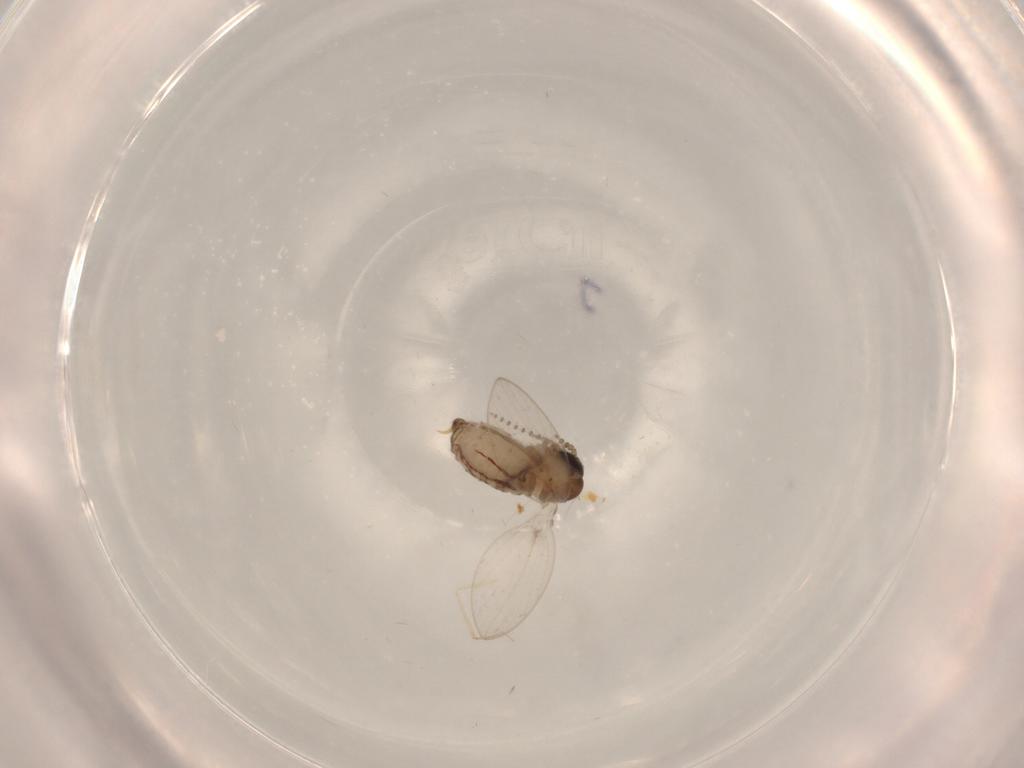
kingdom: Animalia
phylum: Arthropoda
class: Insecta
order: Diptera
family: Psychodidae
